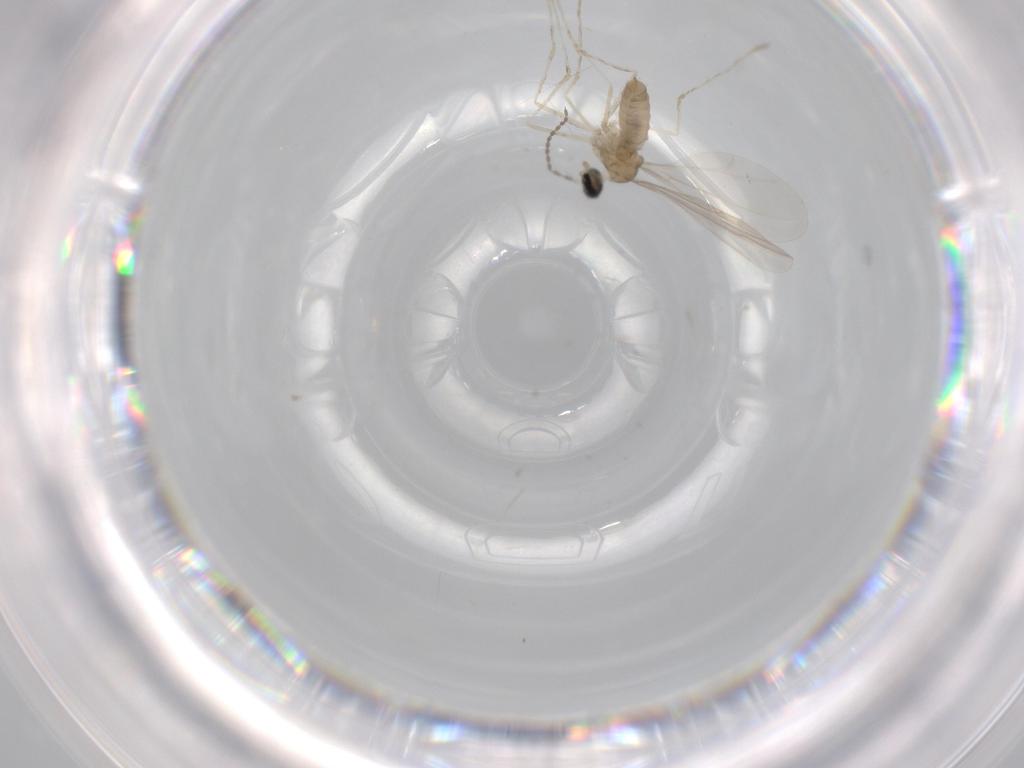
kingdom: Animalia
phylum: Arthropoda
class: Insecta
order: Diptera
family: Cecidomyiidae
